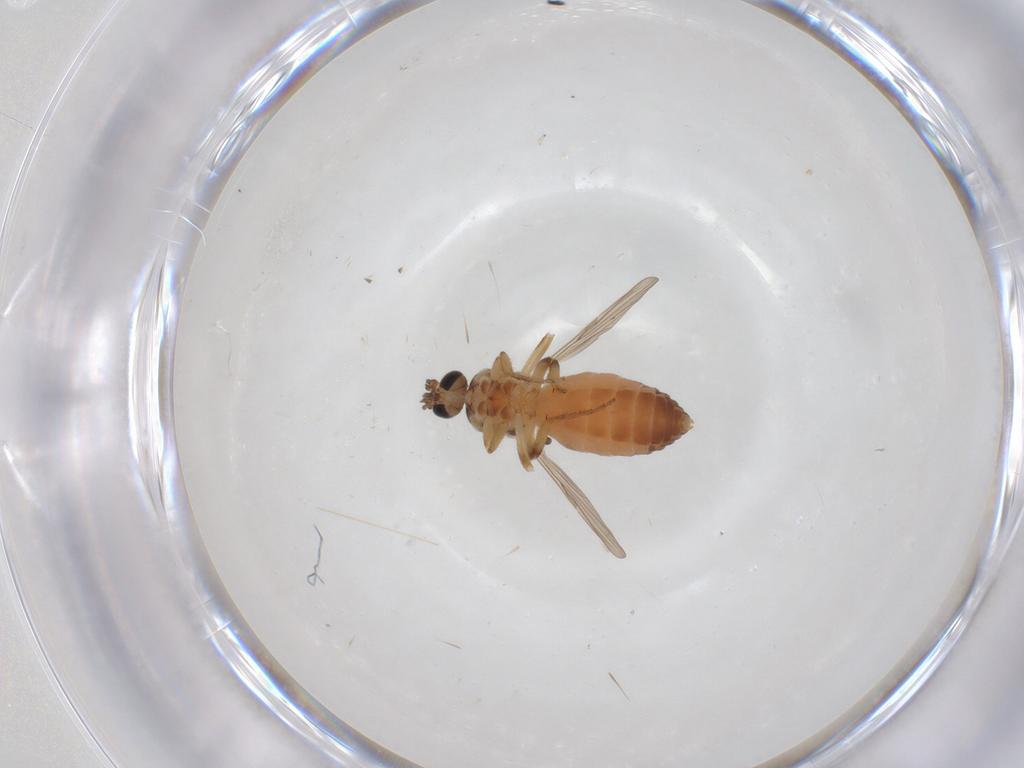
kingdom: Animalia
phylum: Arthropoda
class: Insecta
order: Diptera
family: Ceratopogonidae
